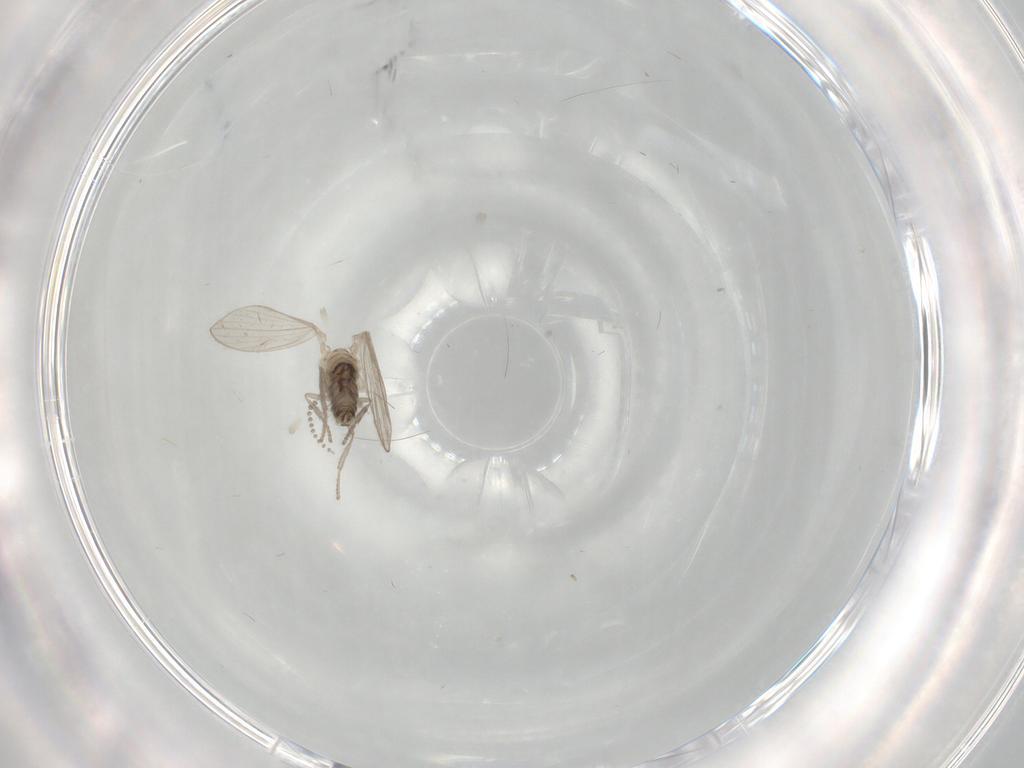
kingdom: Animalia
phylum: Arthropoda
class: Insecta
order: Diptera
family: Psychodidae
